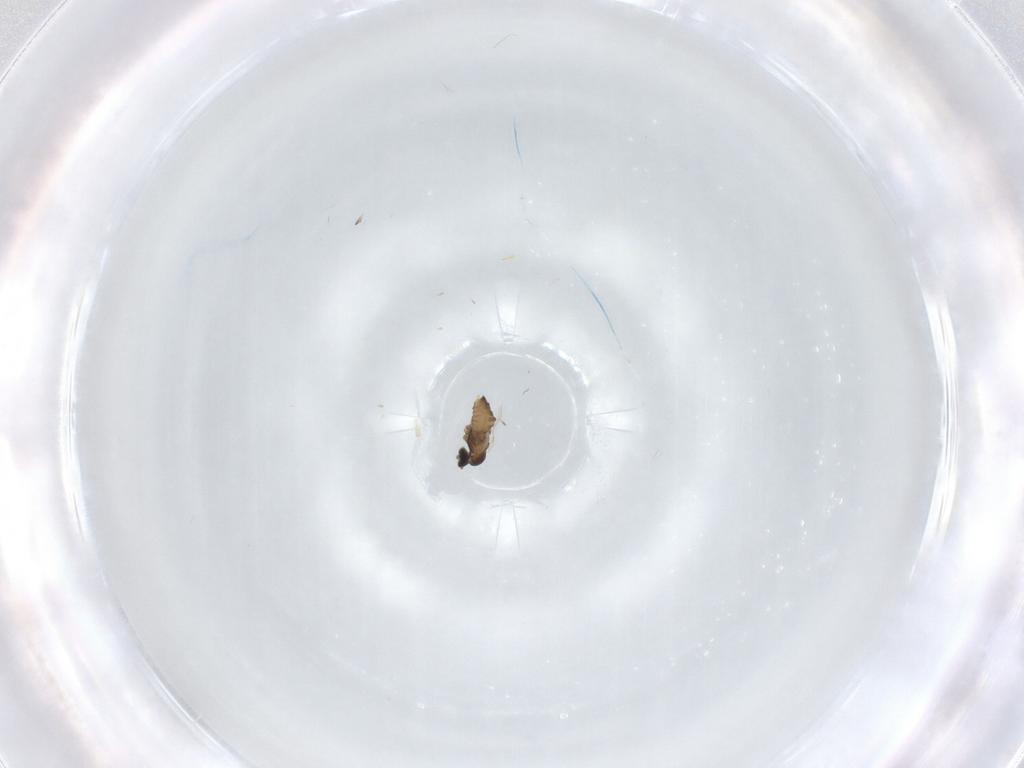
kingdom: Animalia
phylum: Arthropoda
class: Insecta
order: Diptera
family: Cecidomyiidae
